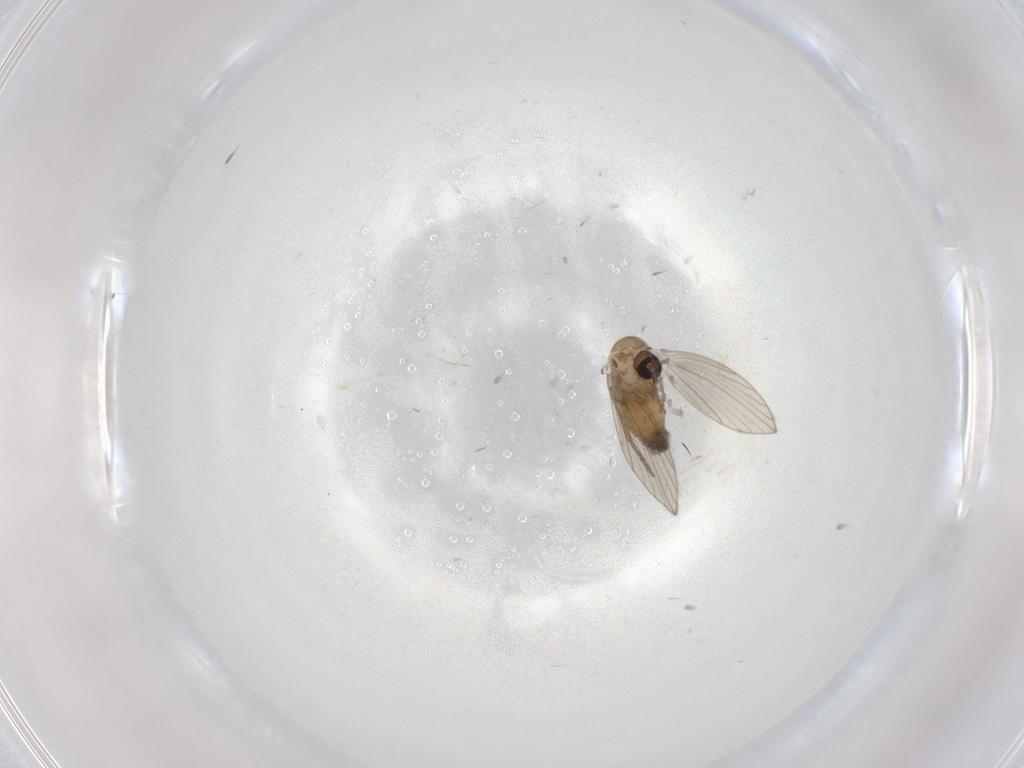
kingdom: Animalia
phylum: Arthropoda
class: Insecta
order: Diptera
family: Psychodidae
